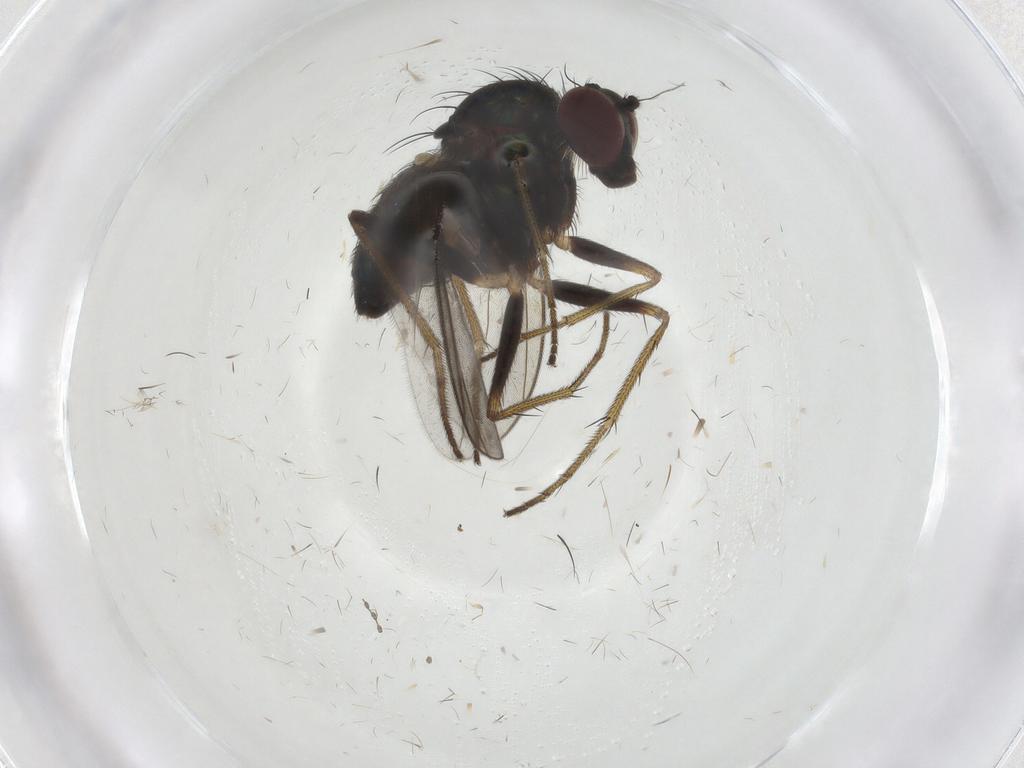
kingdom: Animalia
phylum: Arthropoda
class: Insecta
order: Diptera
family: Dolichopodidae
